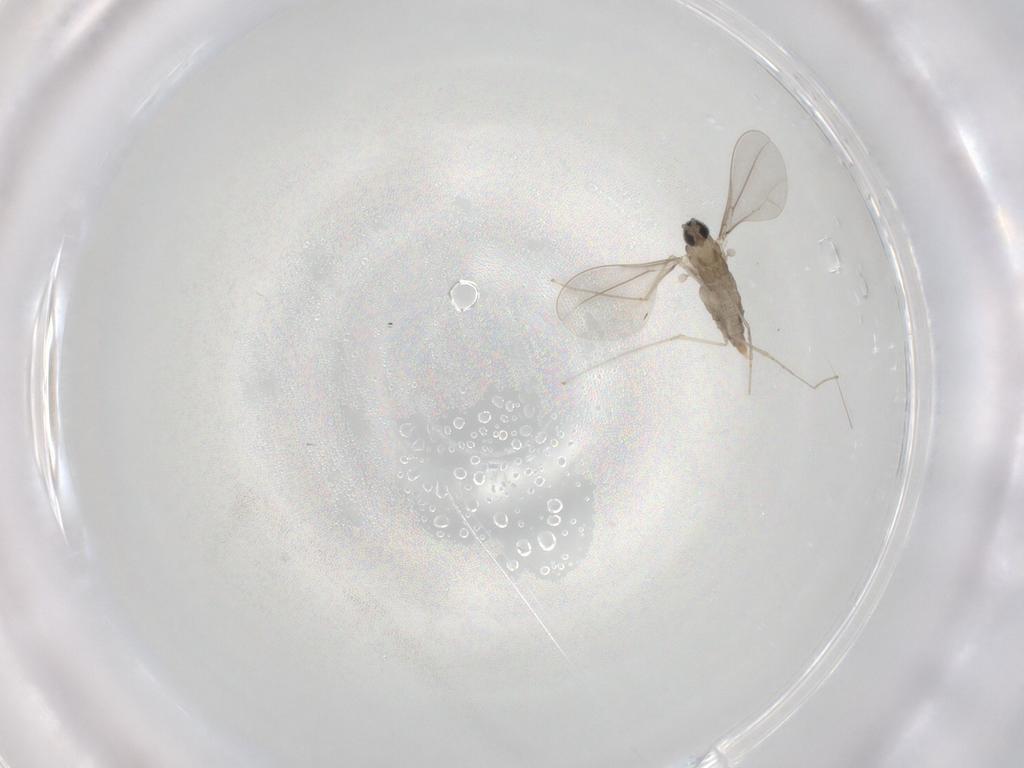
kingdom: Animalia
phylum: Arthropoda
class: Insecta
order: Diptera
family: Cecidomyiidae
